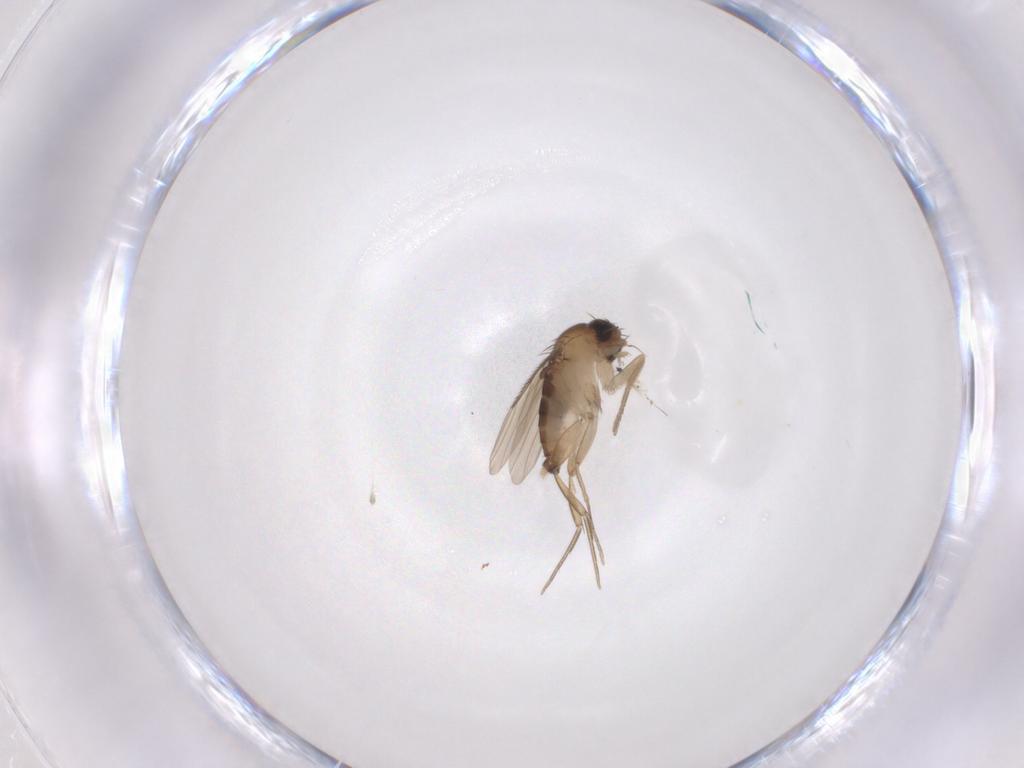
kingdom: Animalia
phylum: Arthropoda
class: Insecta
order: Diptera
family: Phoridae
